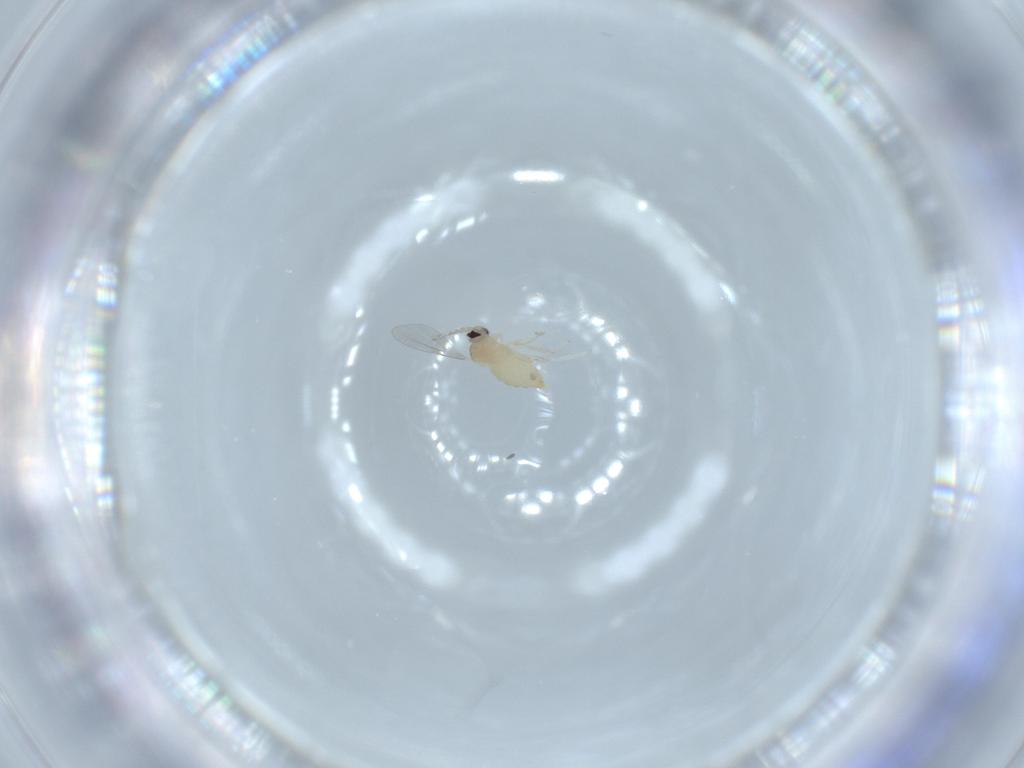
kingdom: Animalia
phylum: Arthropoda
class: Insecta
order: Diptera
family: Cecidomyiidae
